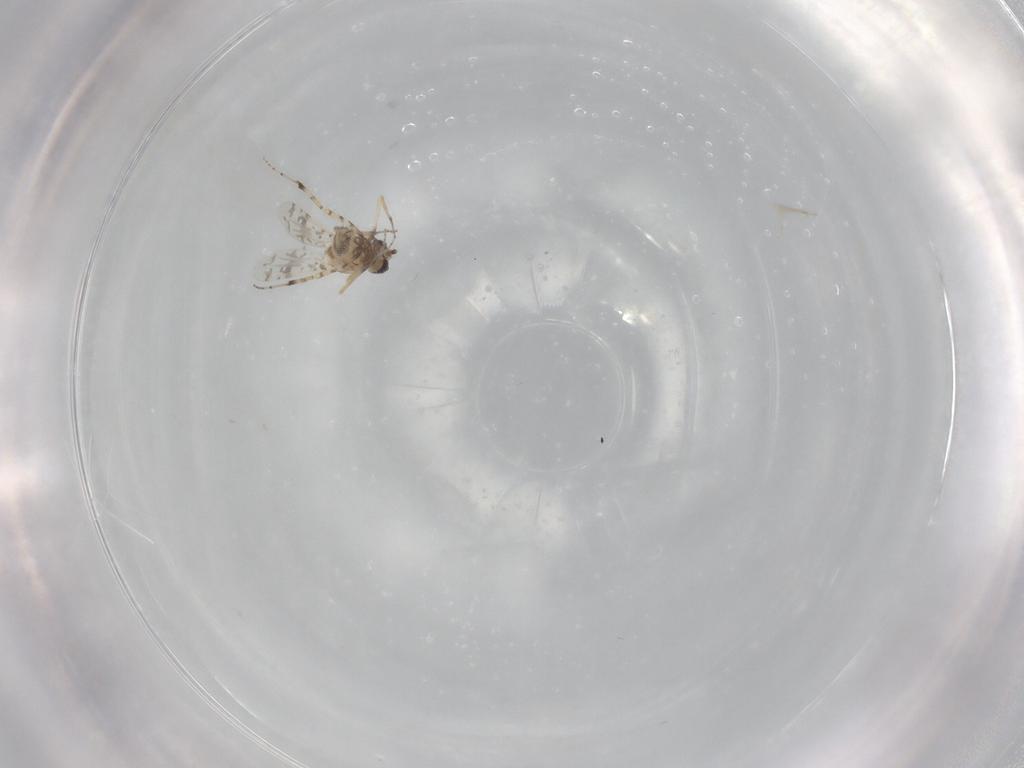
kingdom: Animalia
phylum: Arthropoda
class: Insecta
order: Diptera
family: Ceratopogonidae
